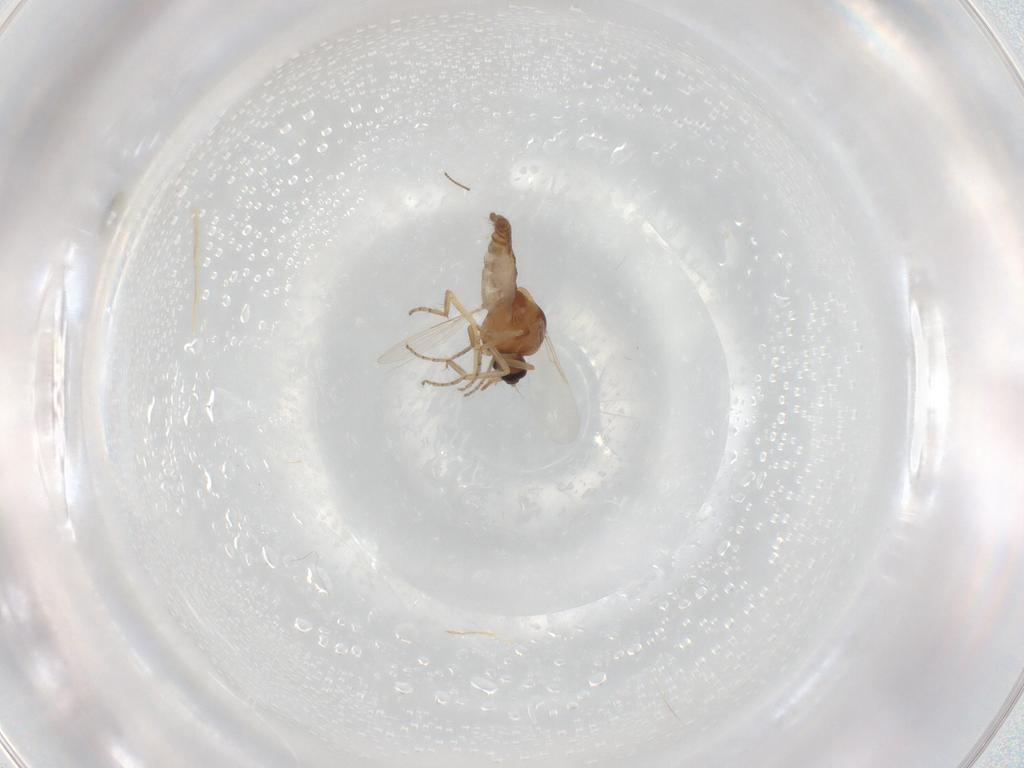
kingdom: Animalia
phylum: Arthropoda
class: Insecta
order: Diptera
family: Ceratopogonidae
